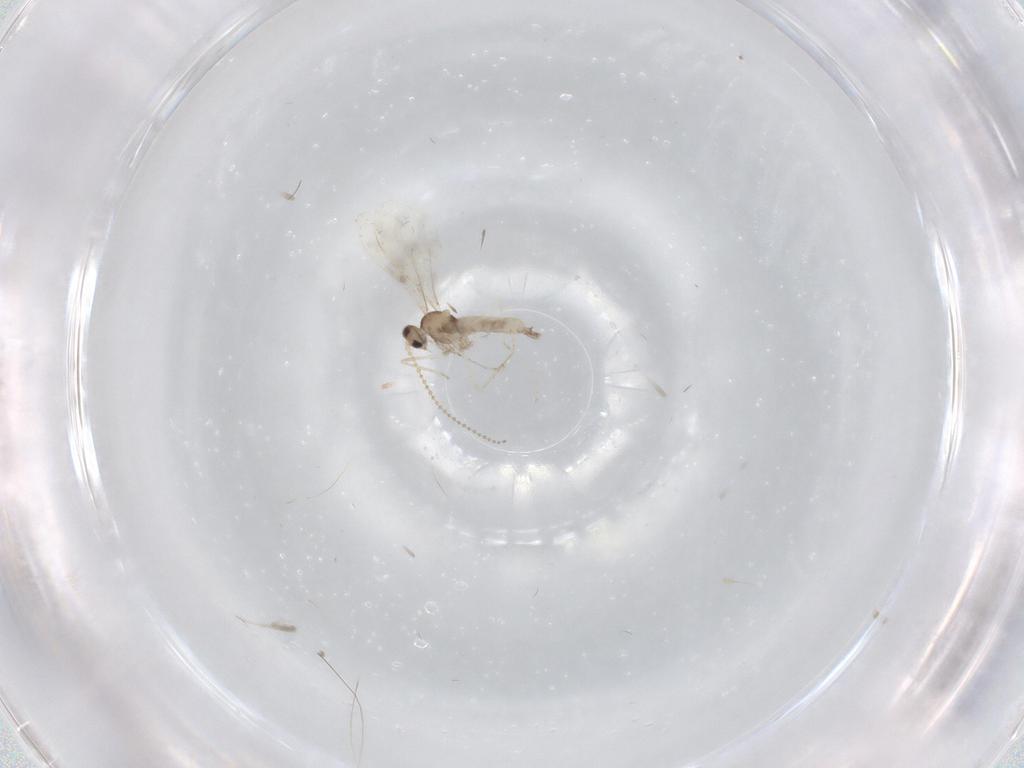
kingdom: Animalia
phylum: Arthropoda
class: Insecta
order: Diptera
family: Cecidomyiidae
